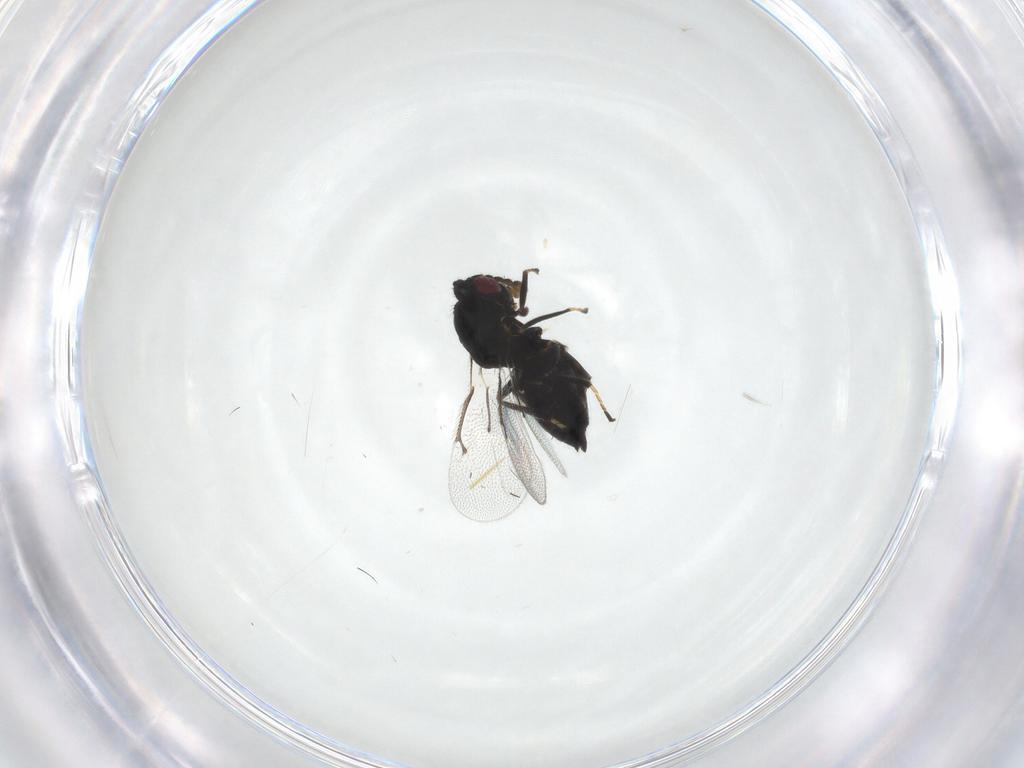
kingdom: Animalia
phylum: Arthropoda
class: Insecta
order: Hymenoptera
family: Eulophidae
